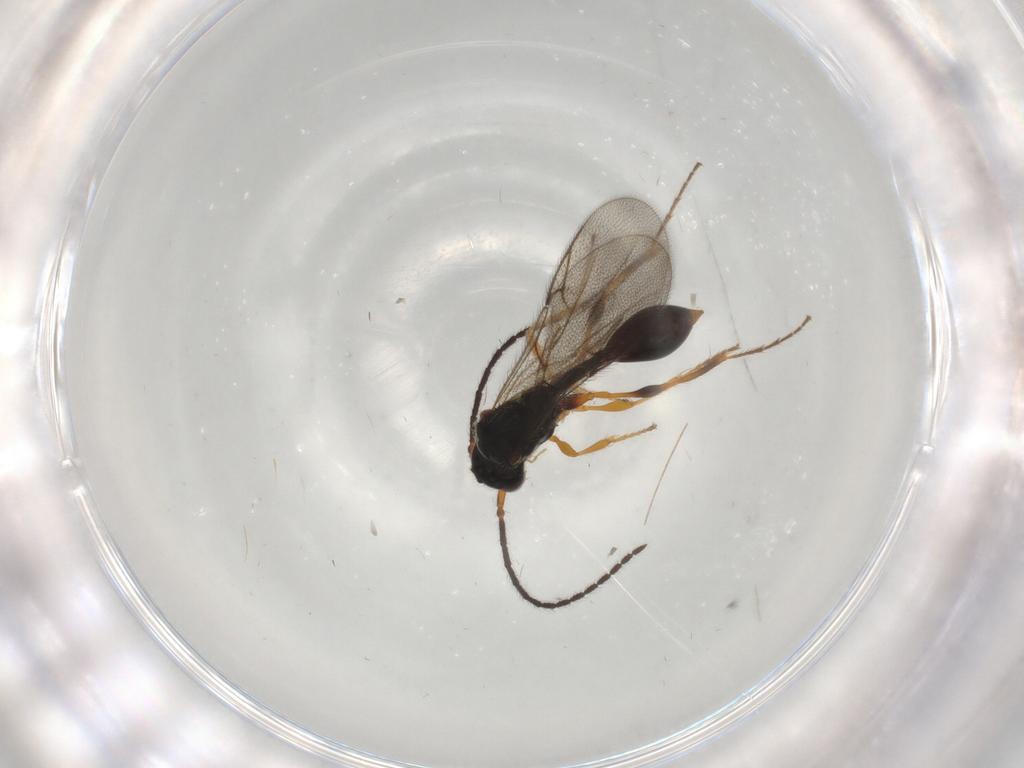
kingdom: Animalia
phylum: Arthropoda
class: Insecta
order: Hymenoptera
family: Diapriidae
